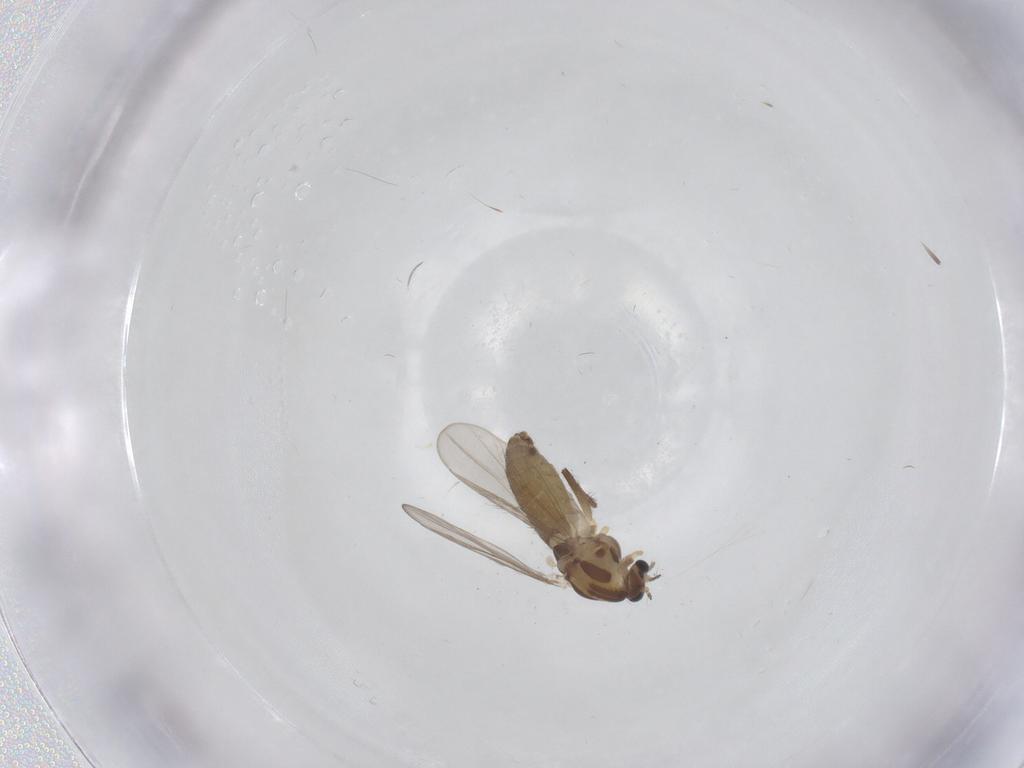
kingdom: Animalia
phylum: Arthropoda
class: Insecta
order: Diptera
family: Chironomidae
